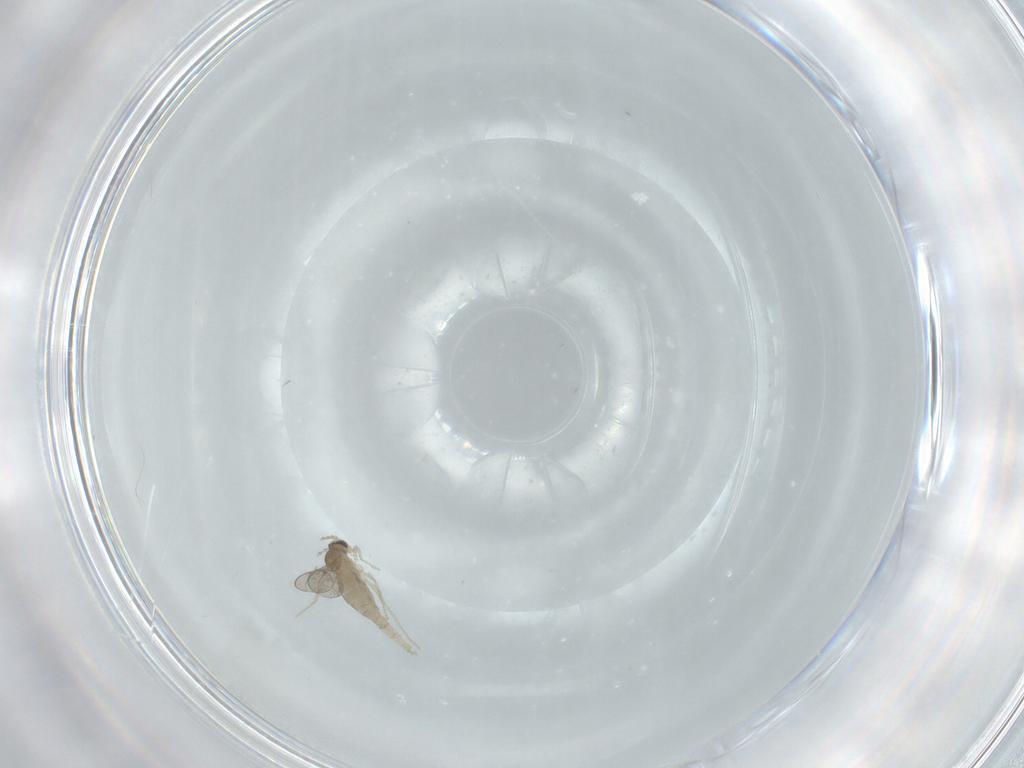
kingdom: Animalia
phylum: Arthropoda
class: Insecta
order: Diptera
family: Cecidomyiidae
